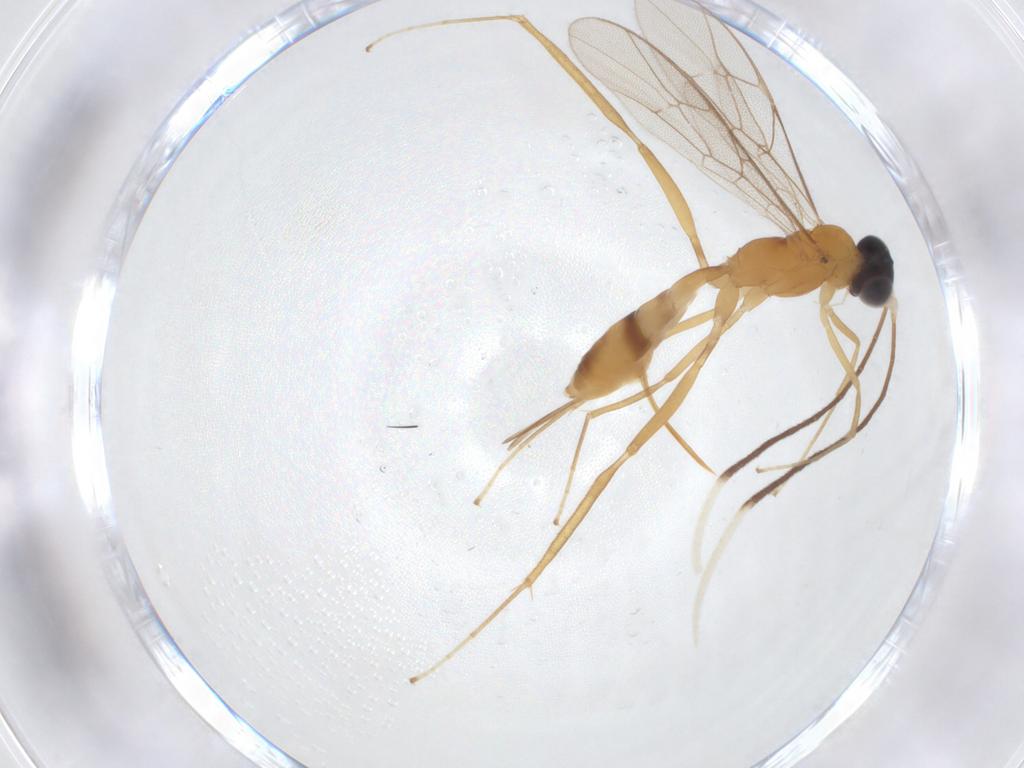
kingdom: Animalia
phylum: Arthropoda
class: Insecta
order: Hymenoptera
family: Ichneumonidae
